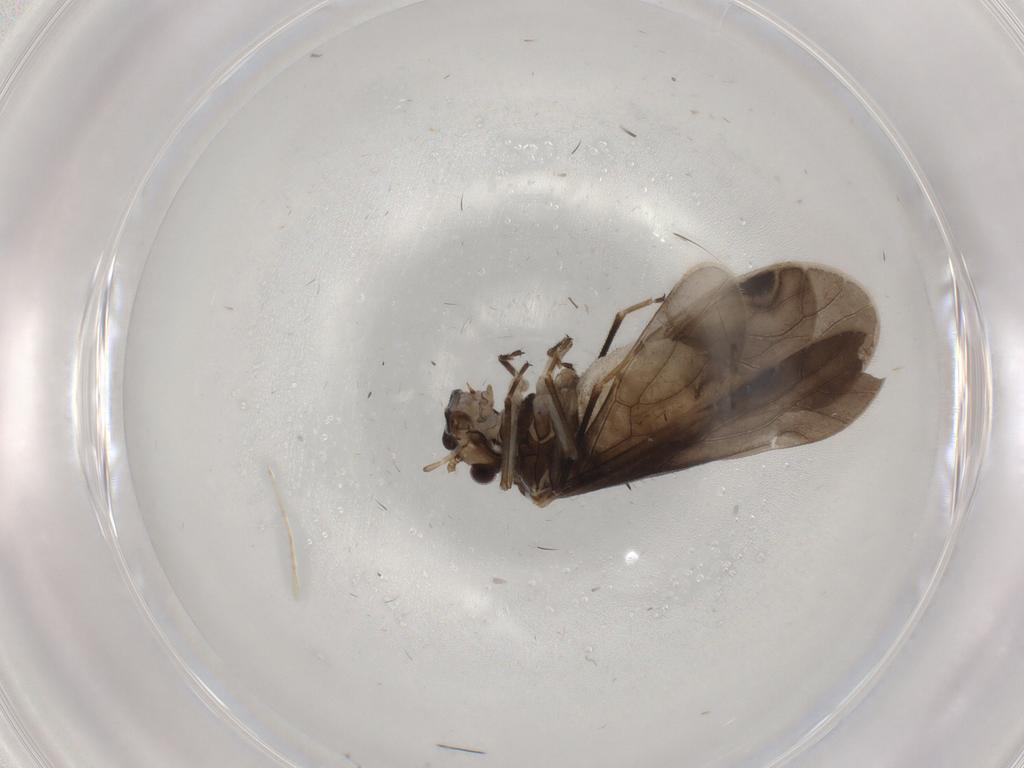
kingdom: Animalia
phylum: Arthropoda
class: Insecta
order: Psocodea
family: Caeciliusidae
